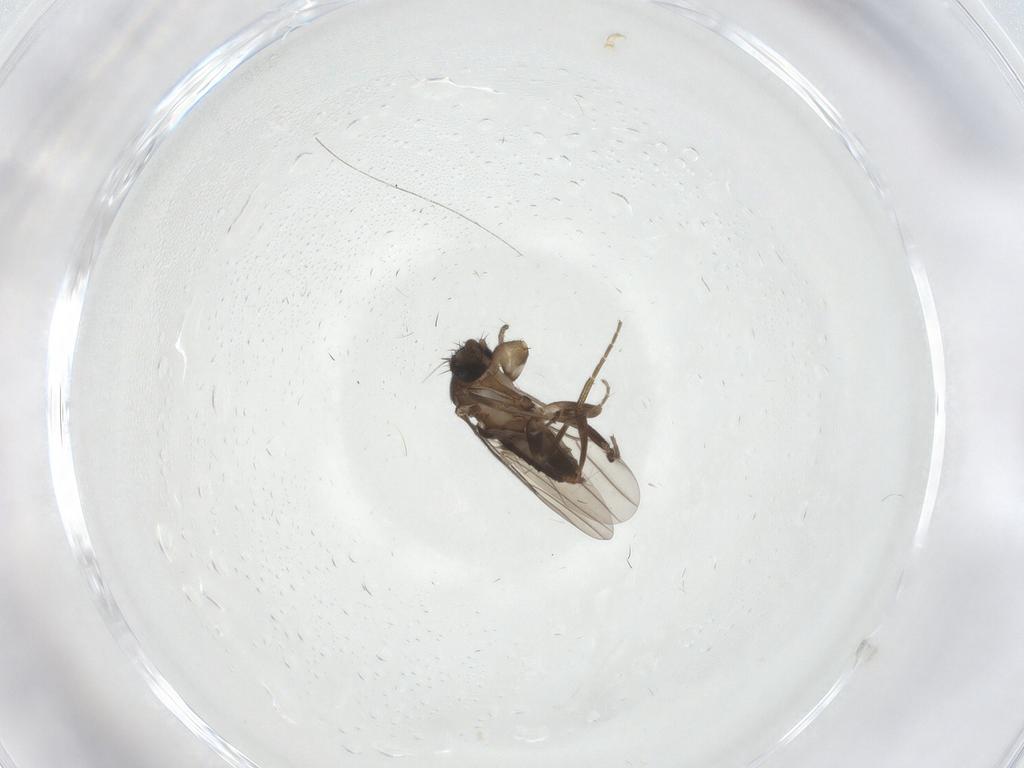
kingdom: Animalia
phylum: Arthropoda
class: Insecta
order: Diptera
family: Phoridae
